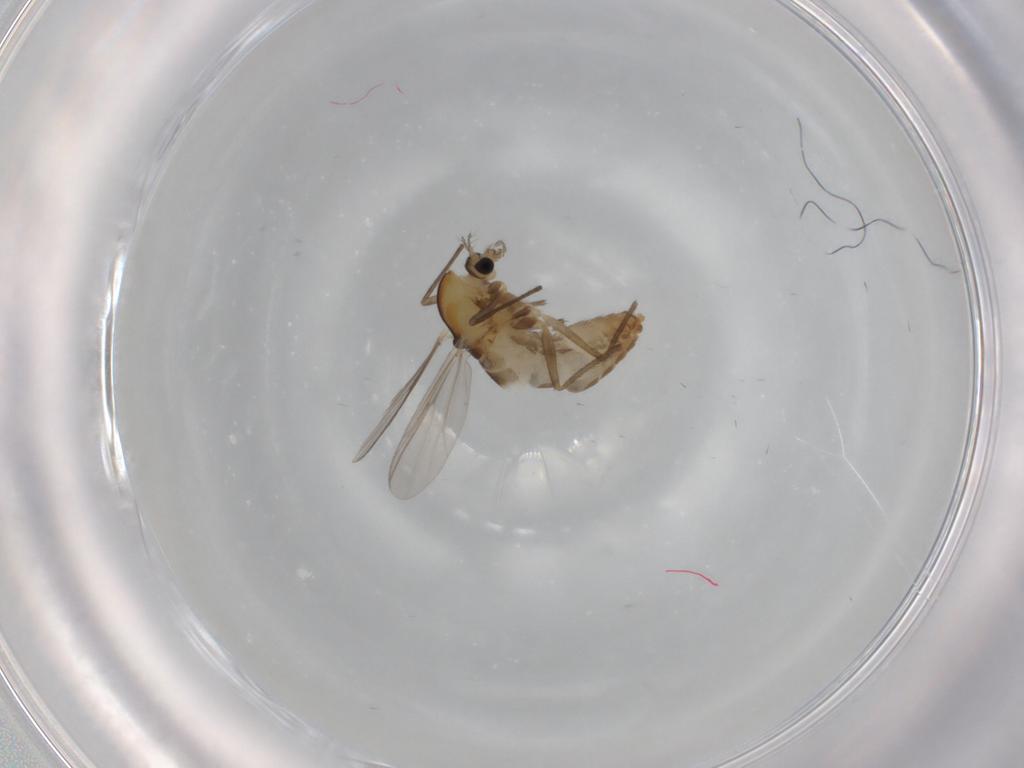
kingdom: Animalia
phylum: Arthropoda
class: Insecta
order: Diptera
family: Chironomidae
